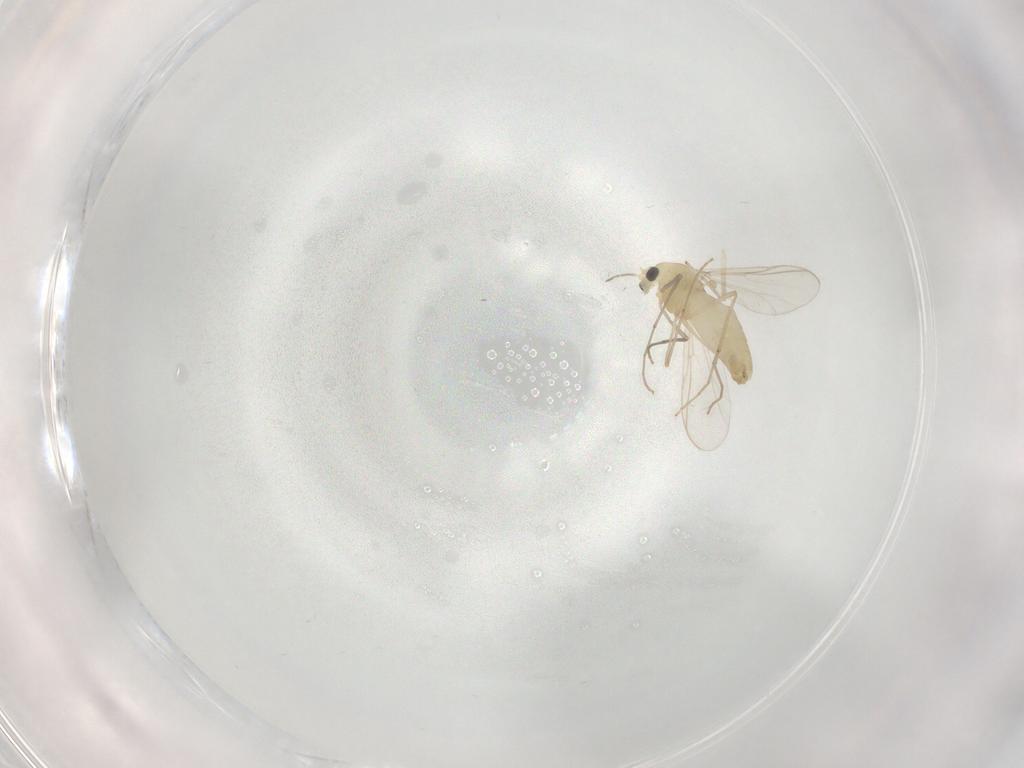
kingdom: Animalia
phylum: Arthropoda
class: Insecta
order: Diptera
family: Chironomidae
